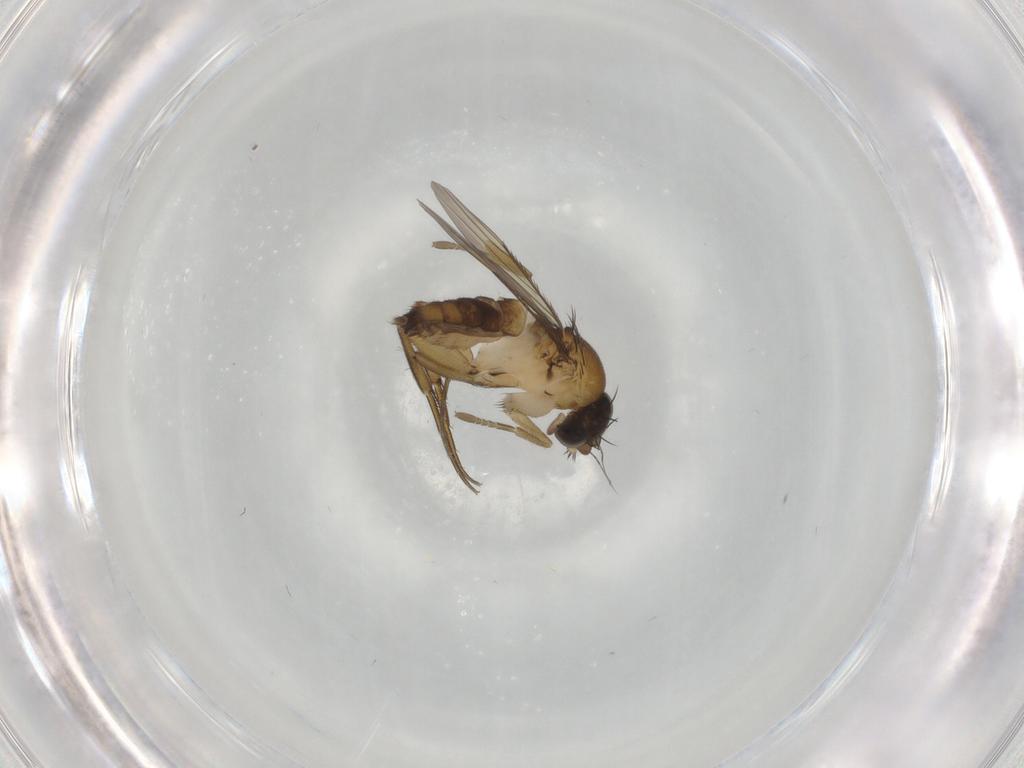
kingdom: Animalia
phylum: Arthropoda
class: Insecta
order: Diptera
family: Phoridae
